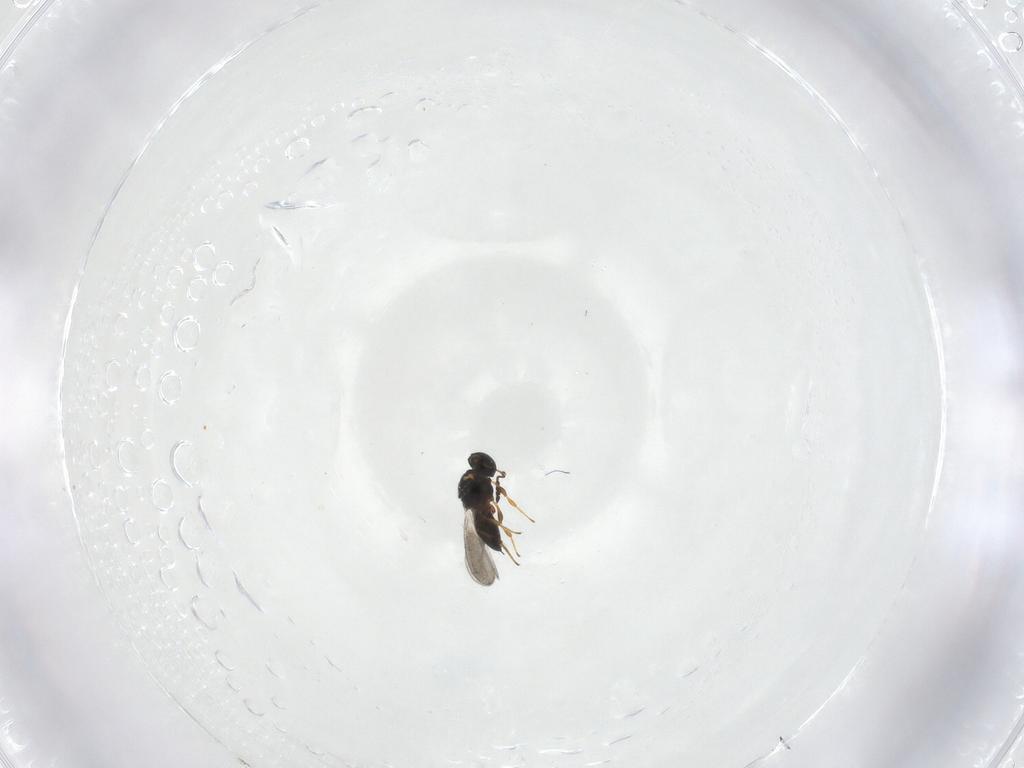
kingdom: Animalia
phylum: Arthropoda
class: Insecta
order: Hymenoptera
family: Platygastridae
